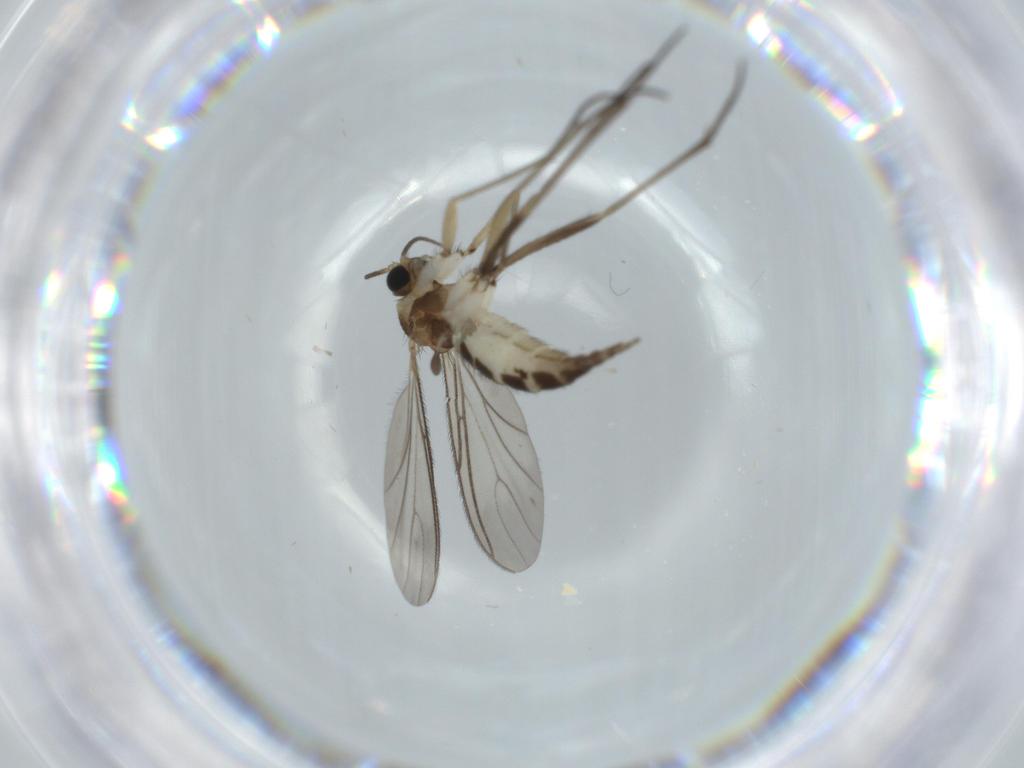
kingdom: Animalia
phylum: Arthropoda
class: Insecta
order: Diptera
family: Sciaridae
